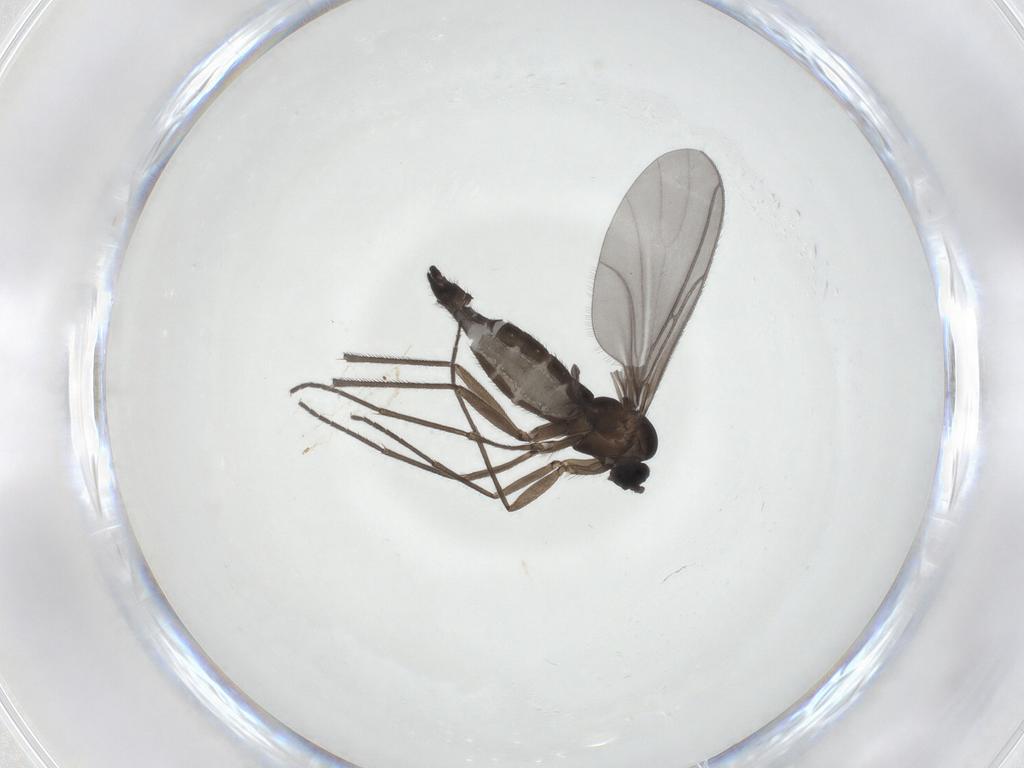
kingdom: Animalia
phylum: Arthropoda
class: Insecta
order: Diptera
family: Sciaridae
